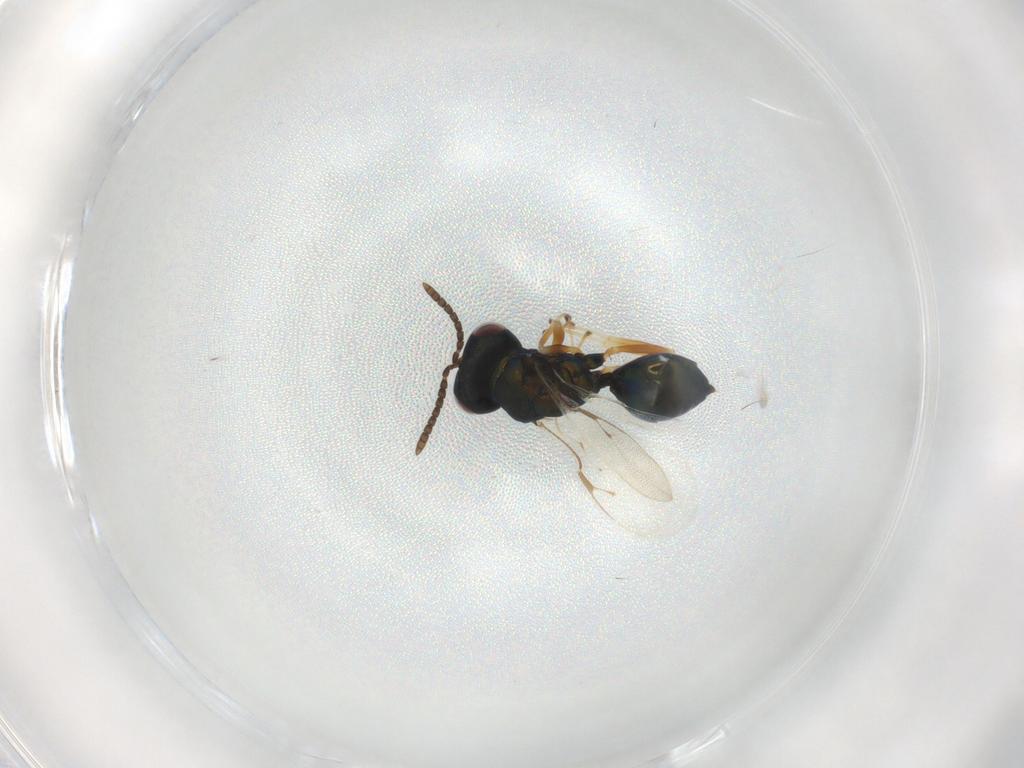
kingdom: Animalia
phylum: Arthropoda
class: Insecta
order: Hymenoptera
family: Pteromalidae
